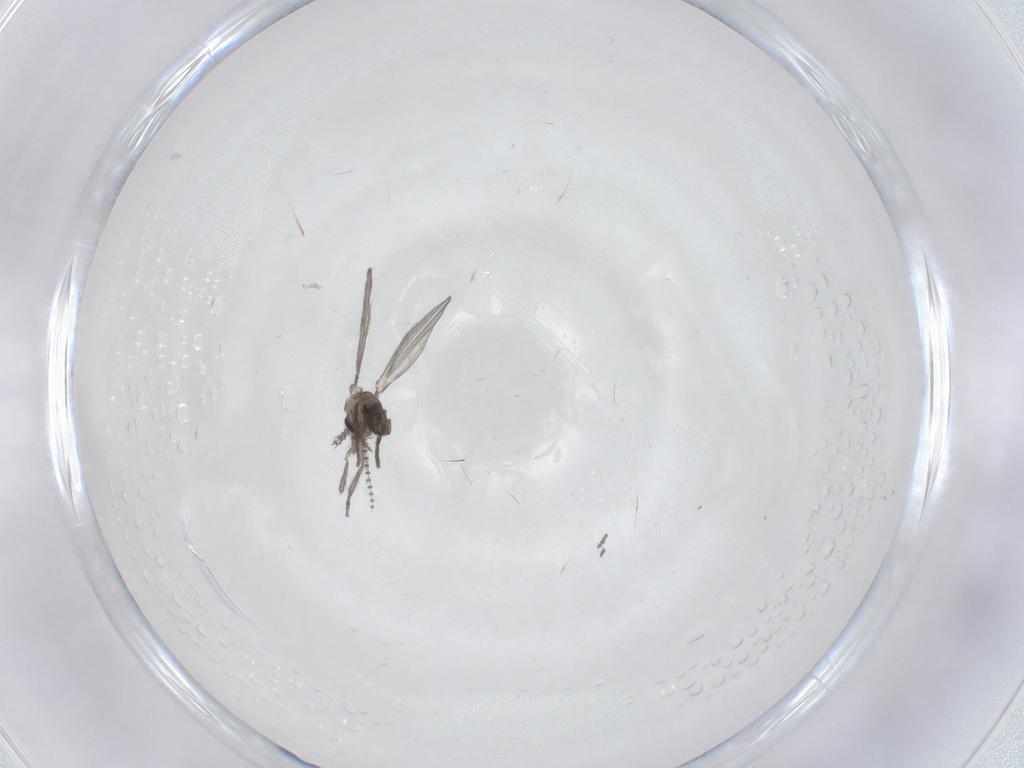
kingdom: Animalia
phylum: Arthropoda
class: Insecta
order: Diptera
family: Psychodidae
